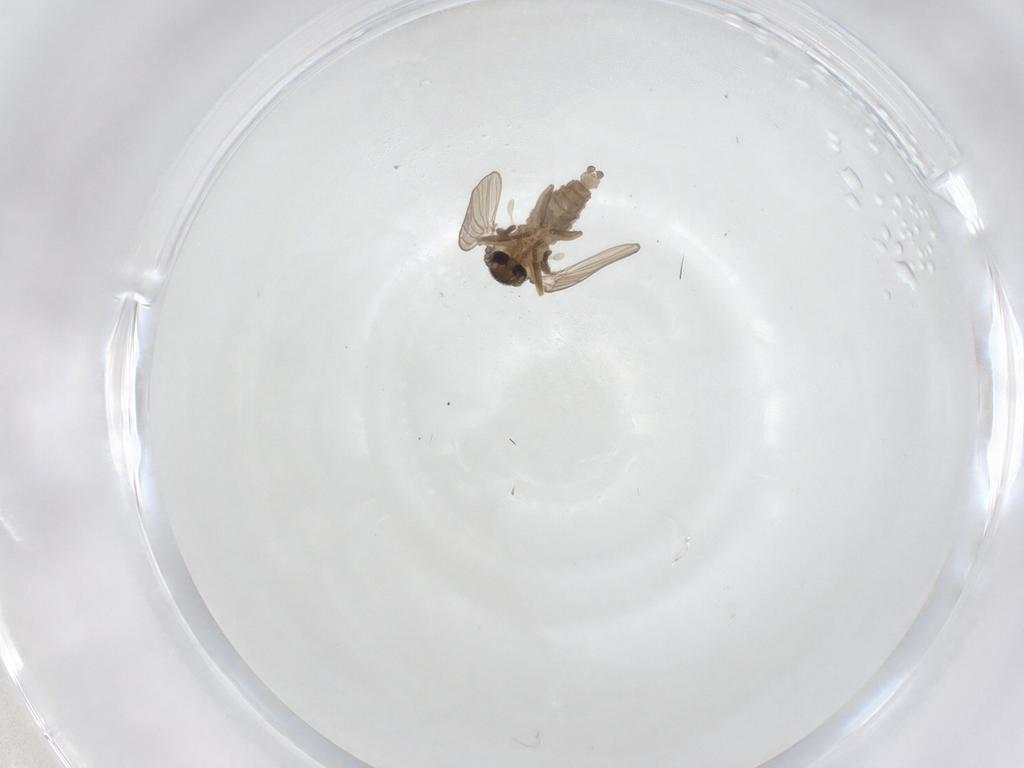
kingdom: Animalia
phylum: Arthropoda
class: Insecta
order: Diptera
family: Psychodidae
